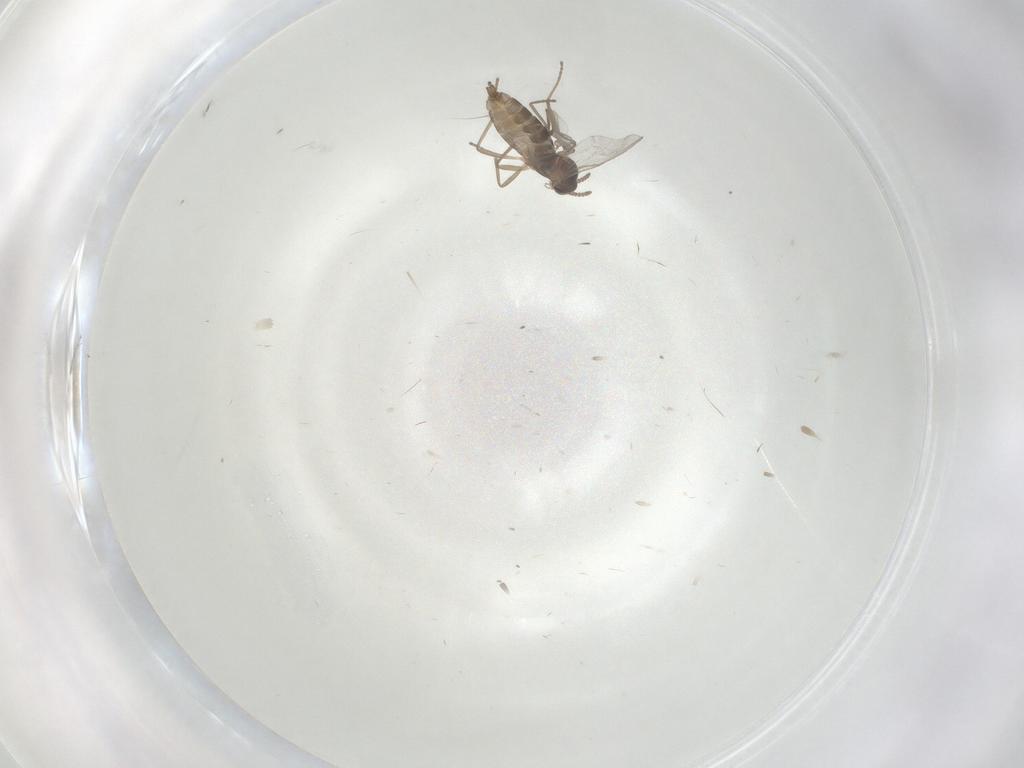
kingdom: Animalia
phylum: Arthropoda
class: Insecta
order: Diptera
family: Cecidomyiidae
